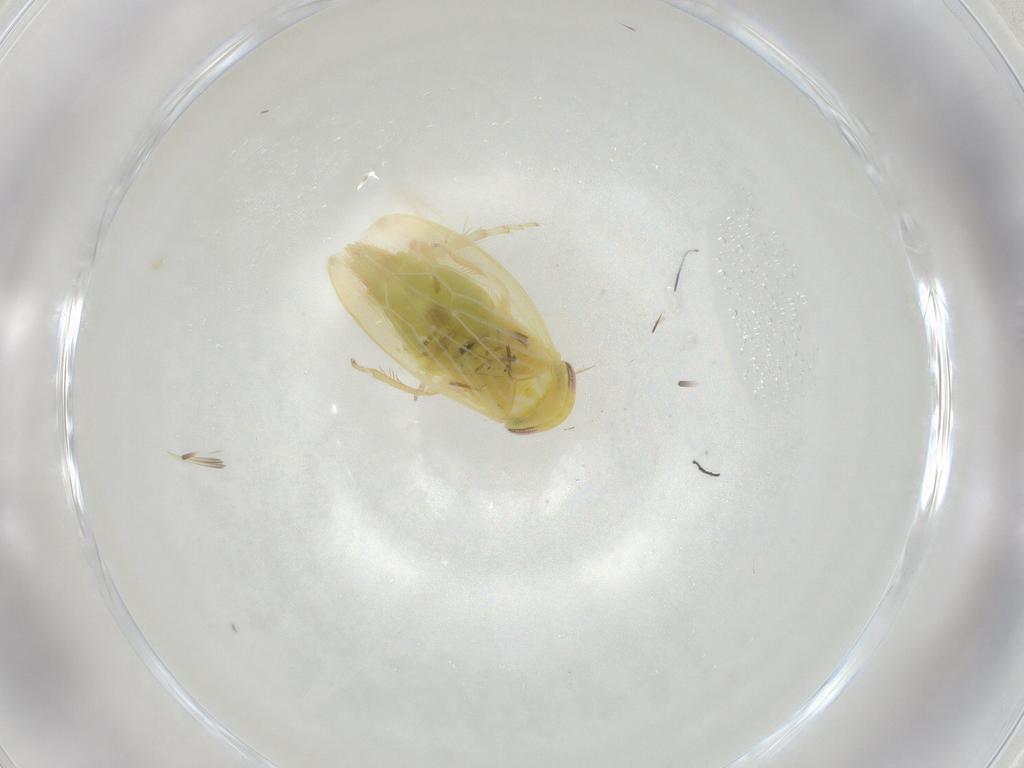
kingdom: Animalia
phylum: Arthropoda
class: Insecta
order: Hemiptera
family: Cicadellidae
